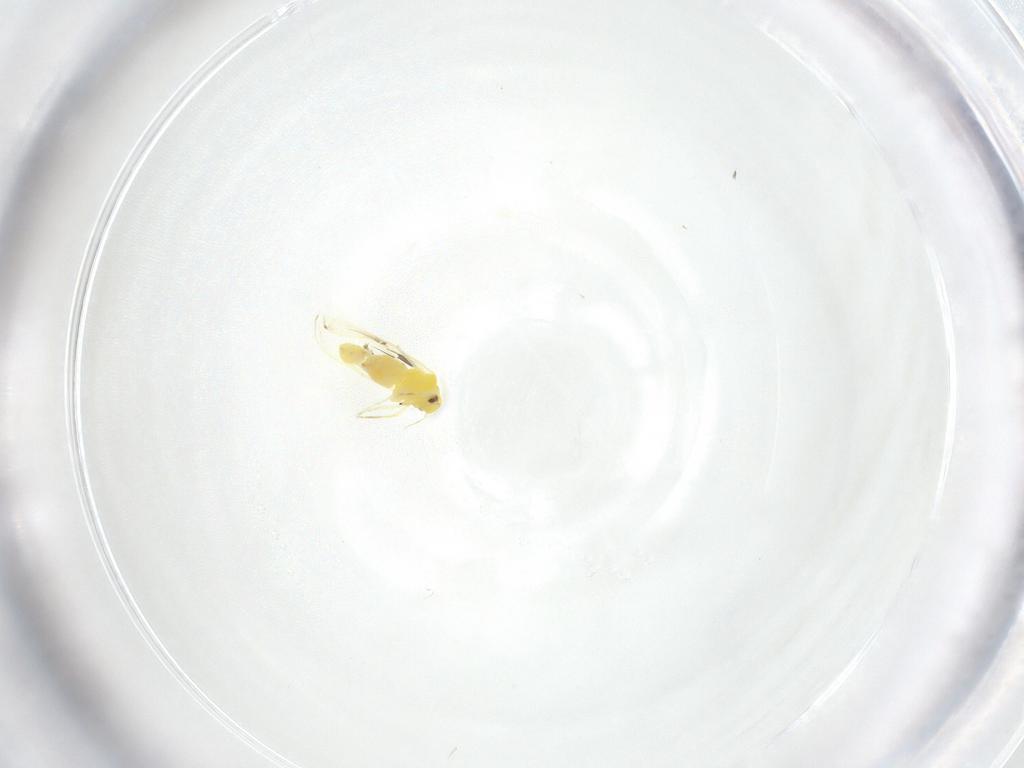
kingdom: Animalia
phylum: Arthropoda
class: Insecta
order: Hemiptera
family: Aleyrodidae
